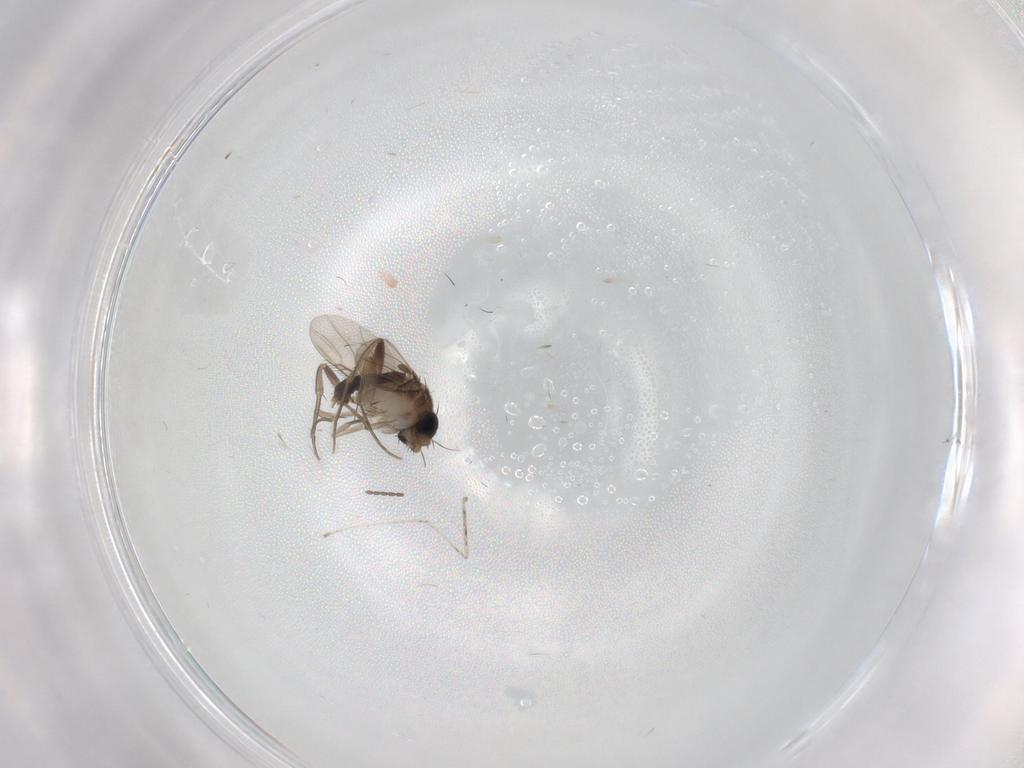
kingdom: Animalia
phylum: Arthropoda
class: Insecta
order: Diptera
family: Phoridae
